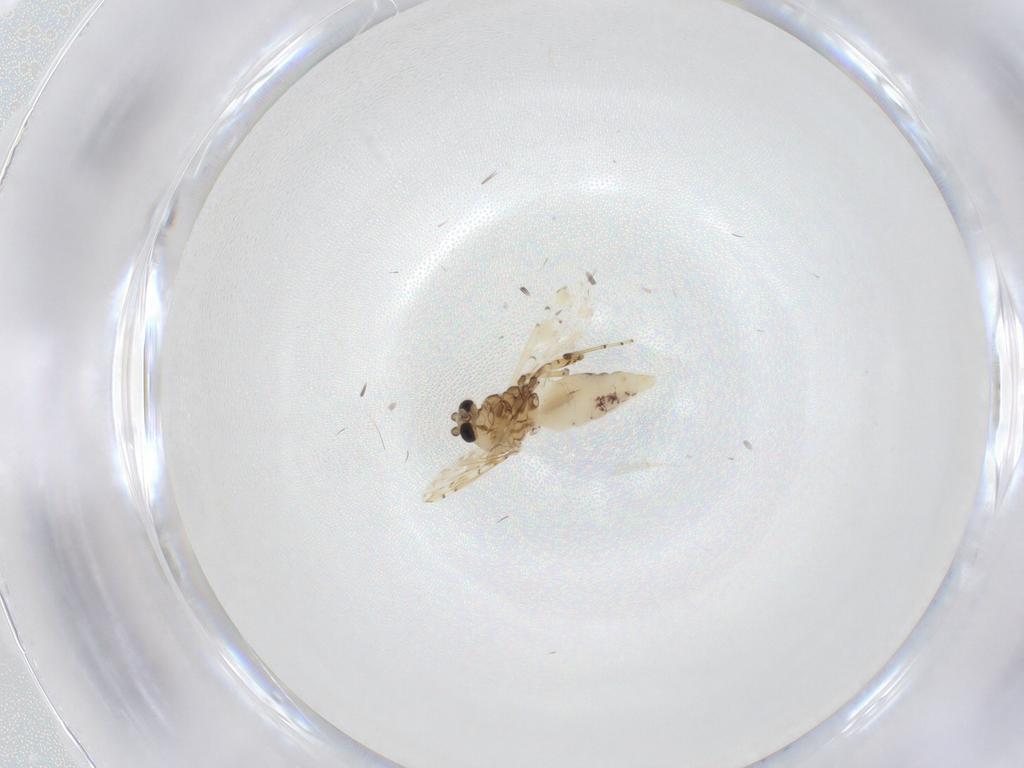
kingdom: Animalia
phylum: Arthropoda
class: Insecta
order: Diptera
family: Ceratopogonidae
